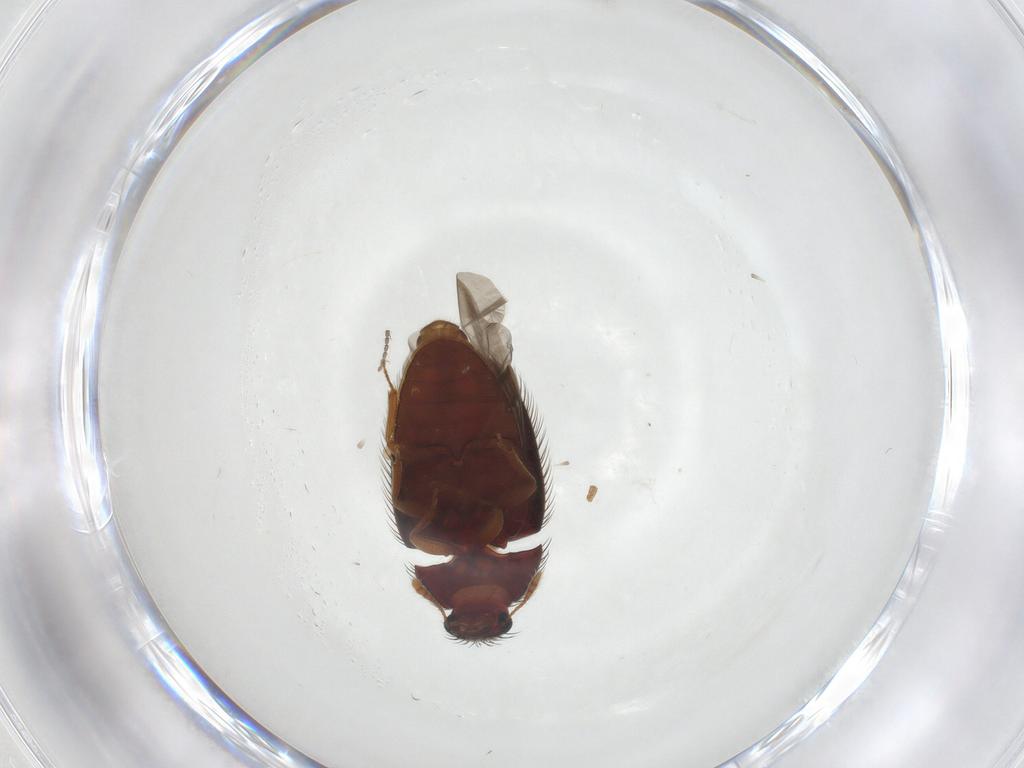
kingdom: Animalia
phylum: Arthropoda
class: Insecta
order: Coleoptera
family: Biphyllidae
